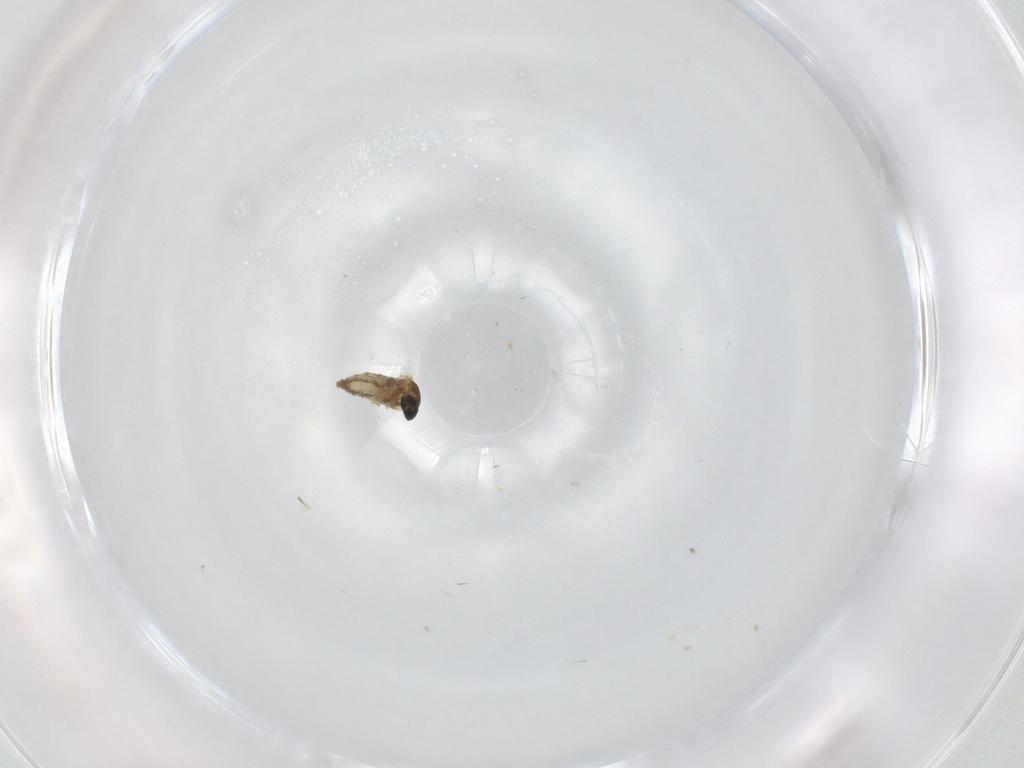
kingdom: Animalia
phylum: Arthropoda
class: Insecta
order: Diptera
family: Cecidomyiidae
